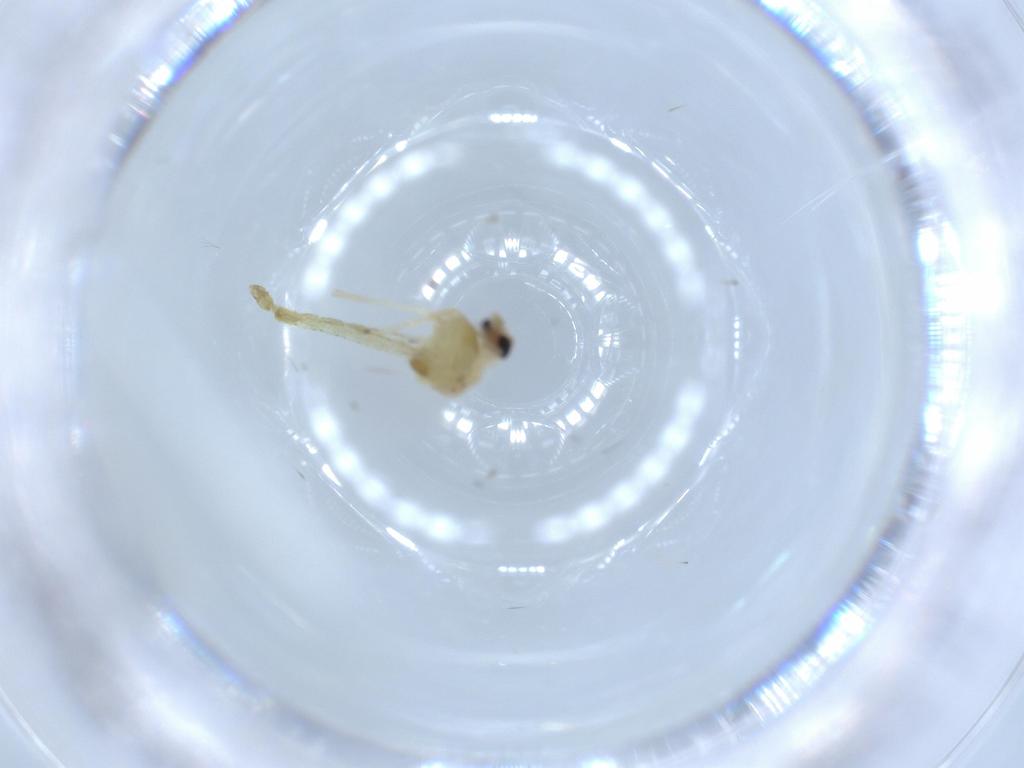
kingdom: Animalia
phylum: Arthropoda
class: Insecta
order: Diptera
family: Chironomidae
